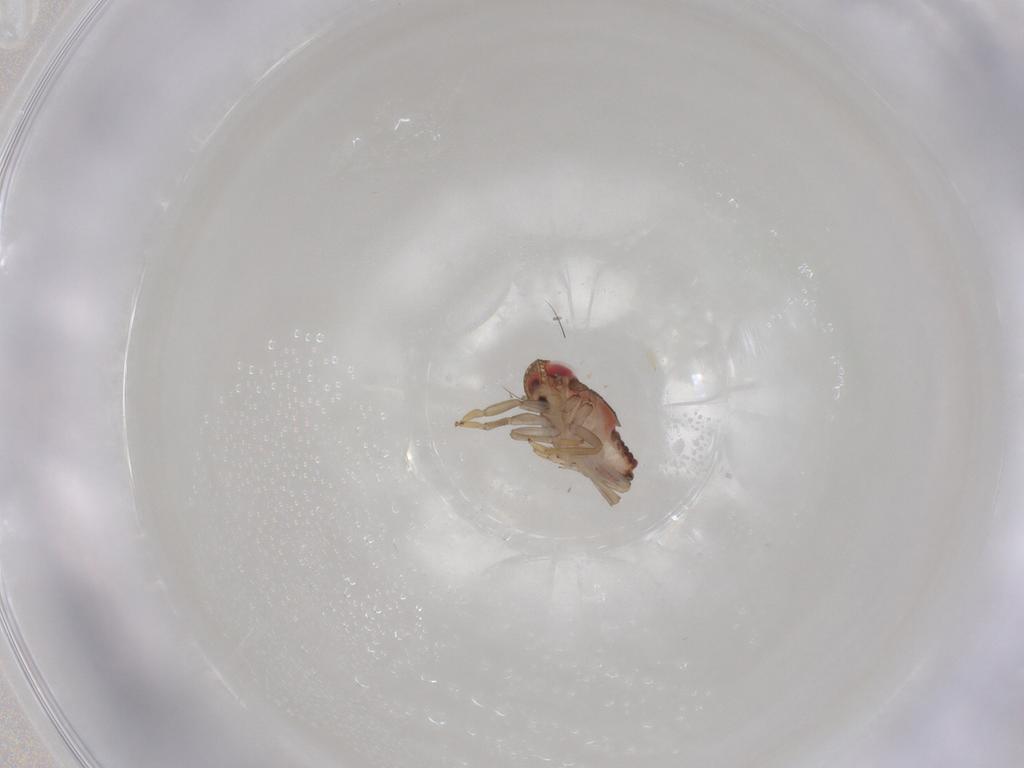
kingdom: Animalia
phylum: Arthropoda
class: Insecta
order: Hemiptera
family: Issidae
